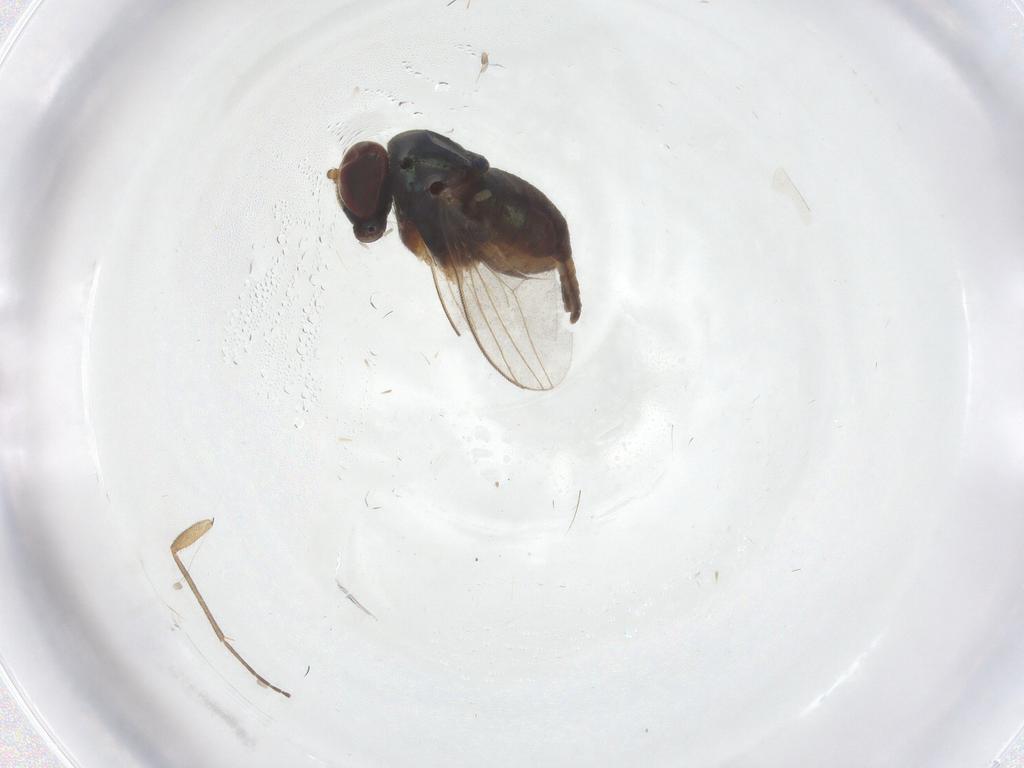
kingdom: Animalia
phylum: Arthropoda
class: Insecta
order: Diptera
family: Dolichopodidae
